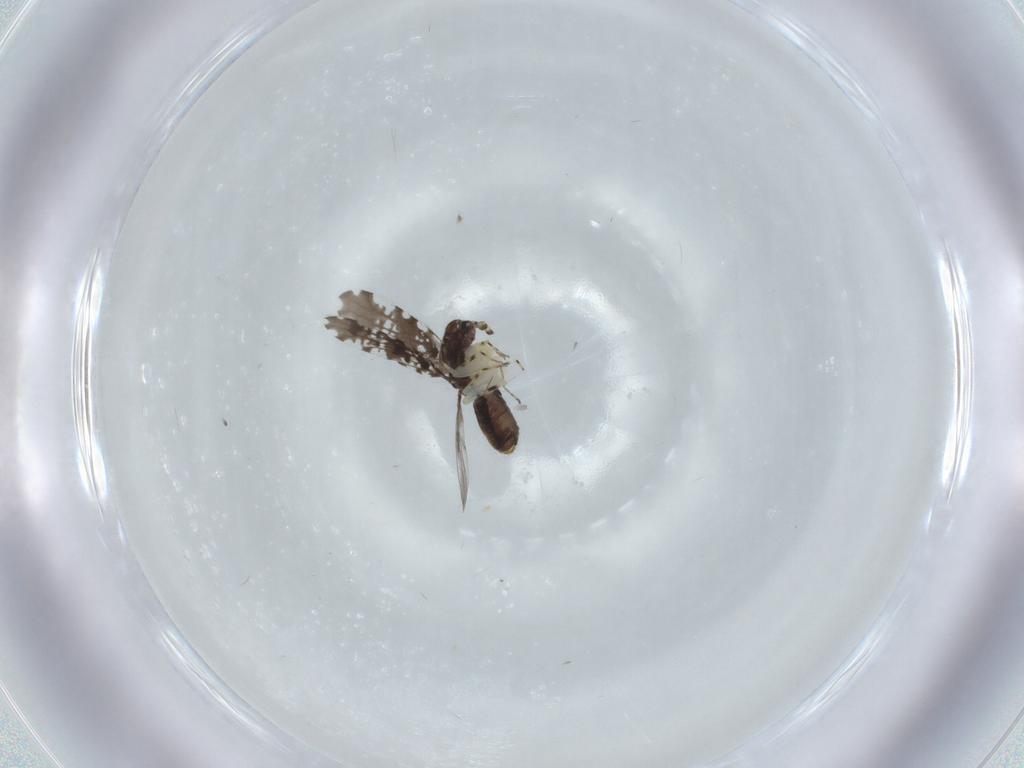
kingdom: Animalia
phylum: Arthropoda
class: Insecta
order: Psocodea
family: Psoquillidae
